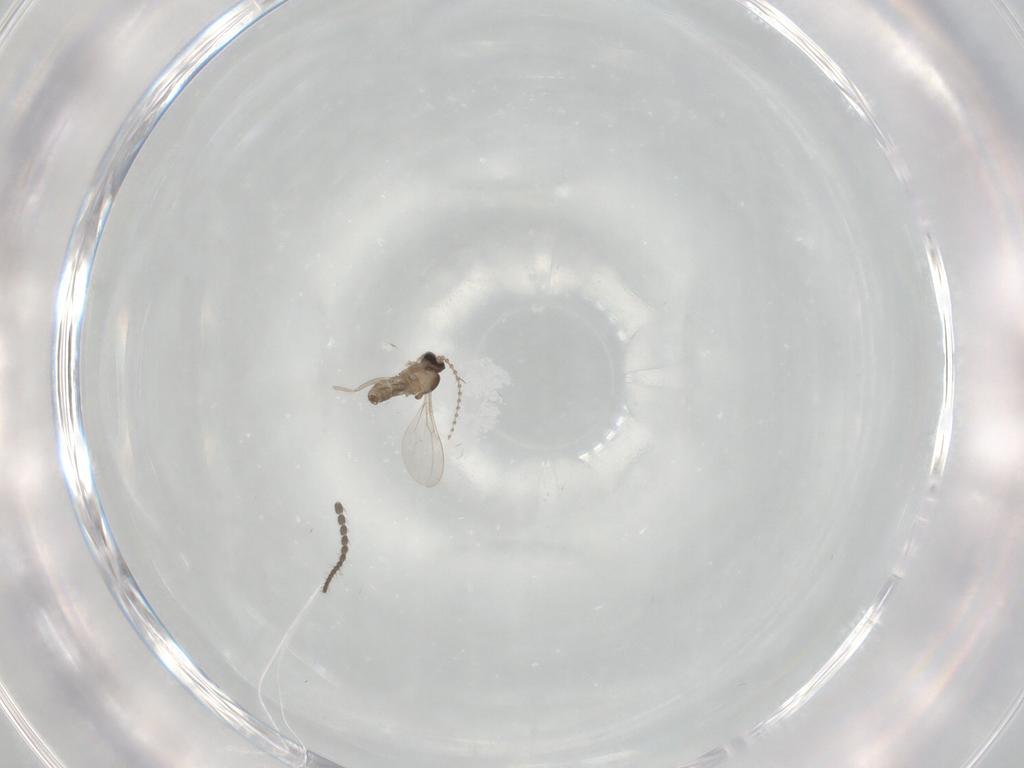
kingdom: Animalia
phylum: Arthropoda
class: Insecta
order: Diptera
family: Limoniidae
